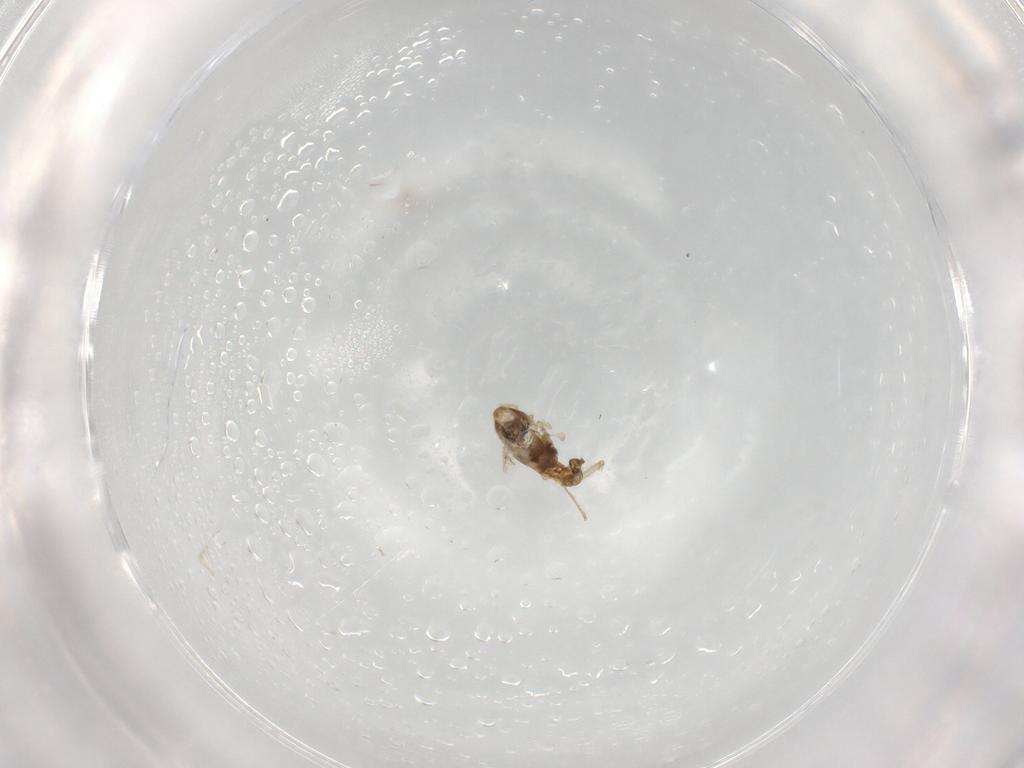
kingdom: Animalia
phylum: Arthropoda
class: Insecta
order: Diptera
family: Chironomidae
